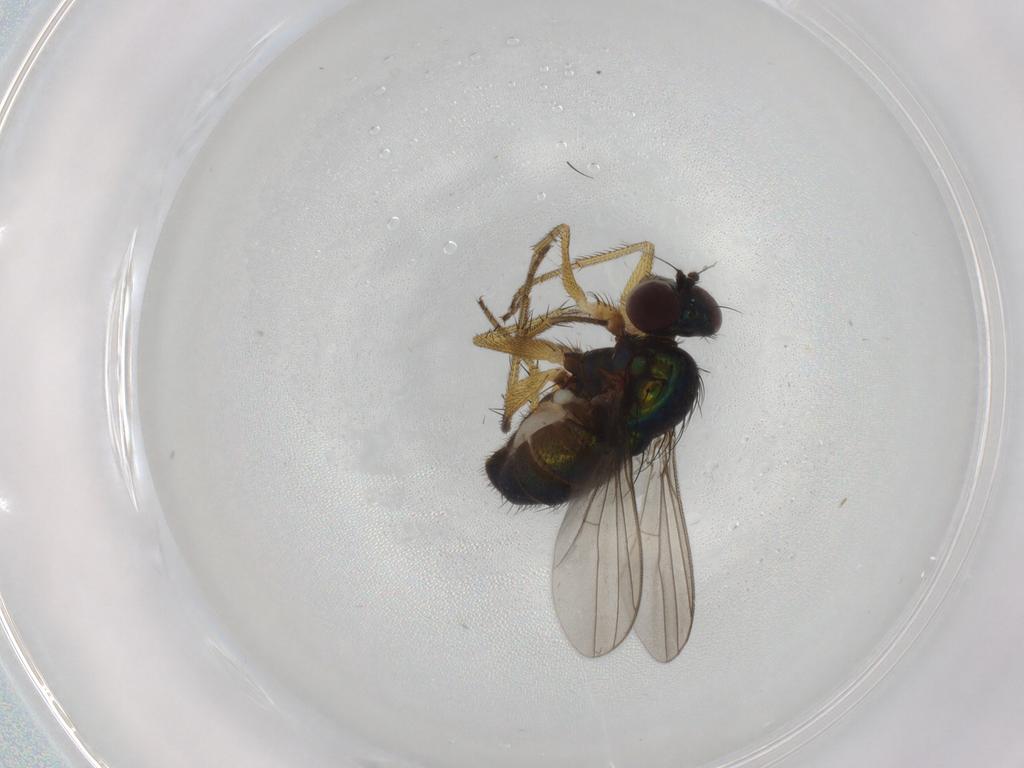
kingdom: Animalia
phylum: Arthropoda
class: Insecta
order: Diptera
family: Dolichopodidae
